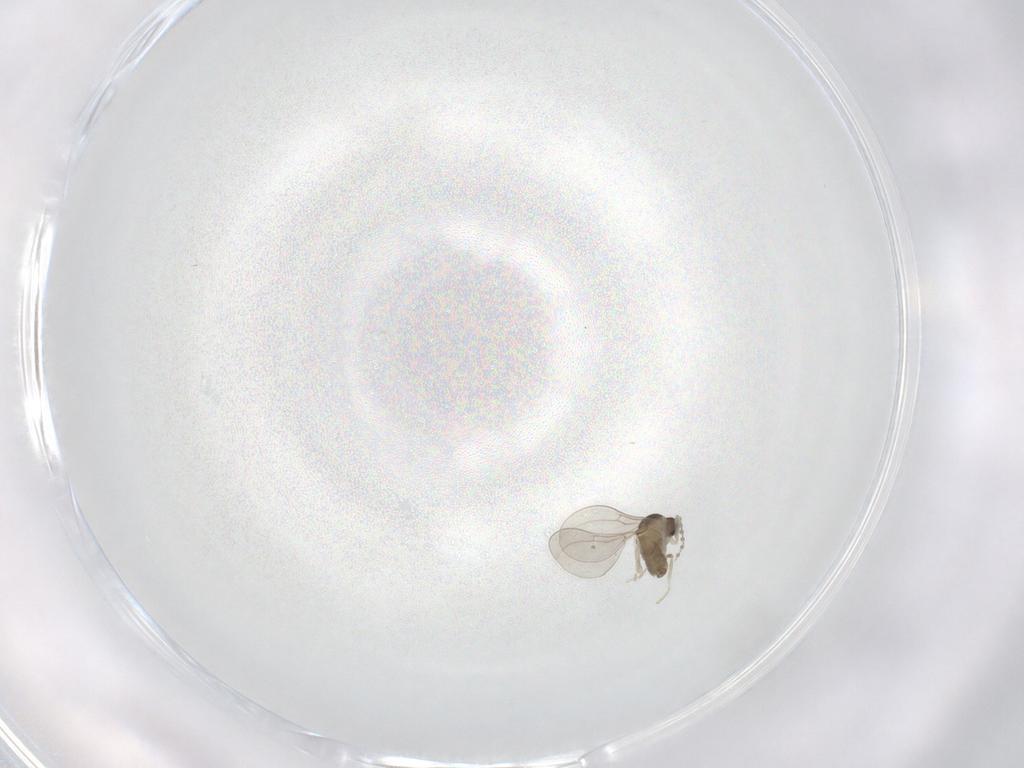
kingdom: Animalia
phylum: Arthropoda
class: Insecta
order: Diptera
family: Cecidomyiidae
